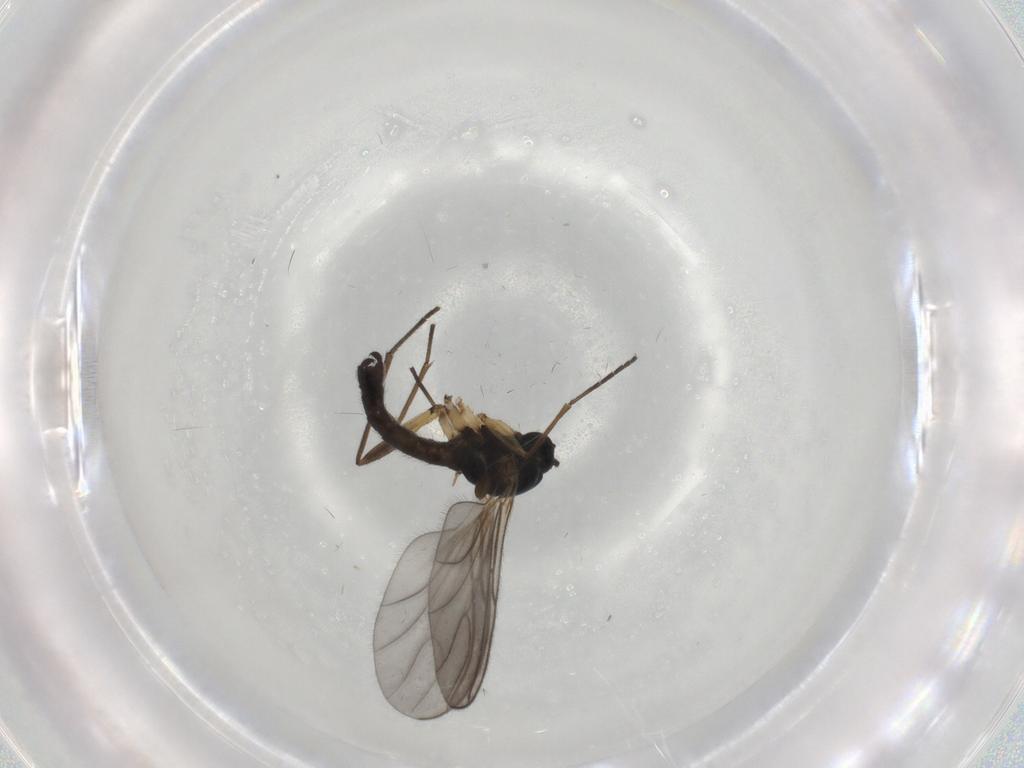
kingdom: Animalia
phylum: Arthropoda
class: Insecta
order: Diptera
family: Sciaridae
